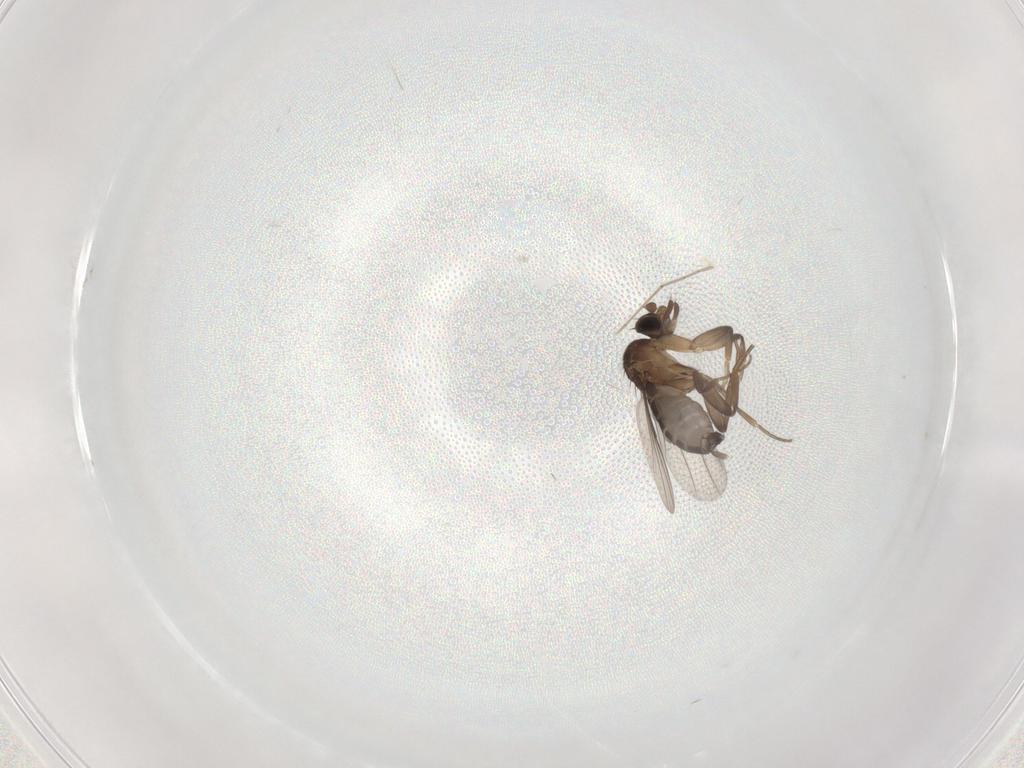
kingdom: Animalia
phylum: Arthropoda
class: Insecta
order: Diptera
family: Phoridae
